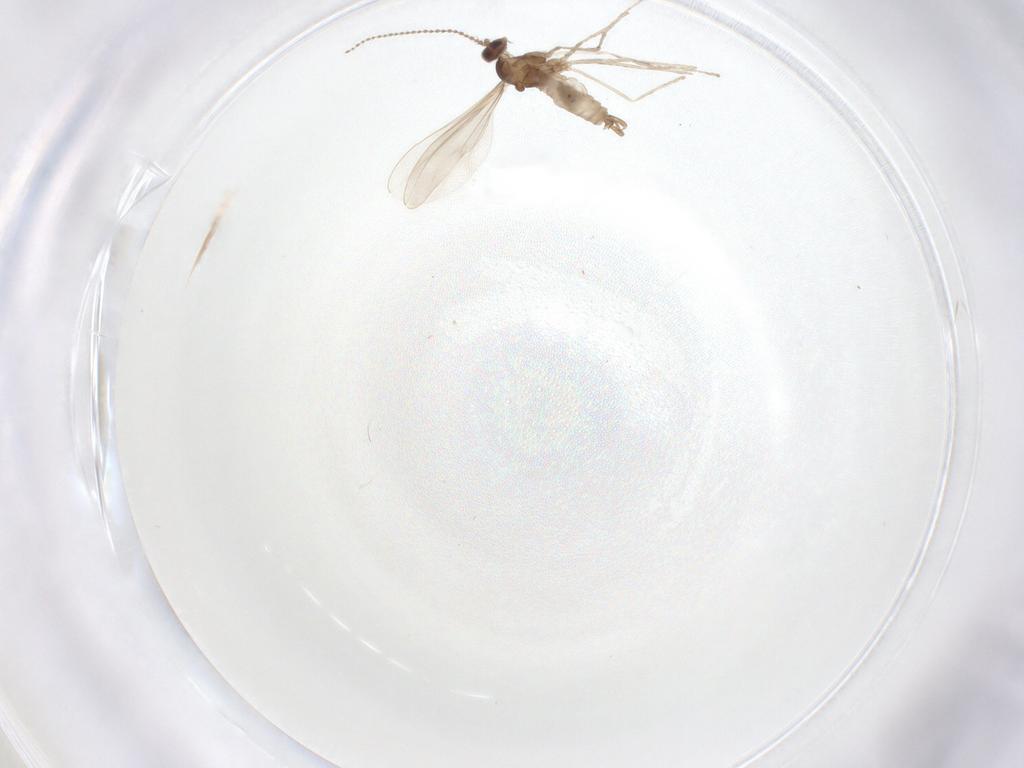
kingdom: Animalia
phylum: Arthropoda
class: Insecta
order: Diptera
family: Cecidomyiidae
